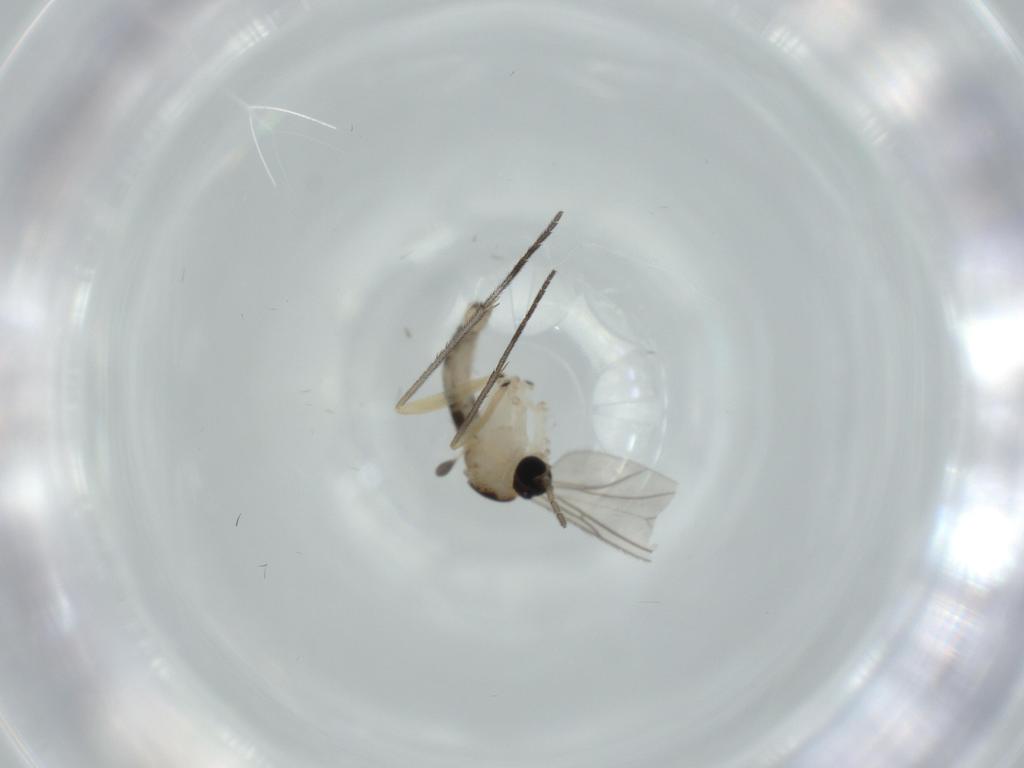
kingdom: Animalia
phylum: Arthropoda
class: Insecta
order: Diptera
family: Sciaridae
